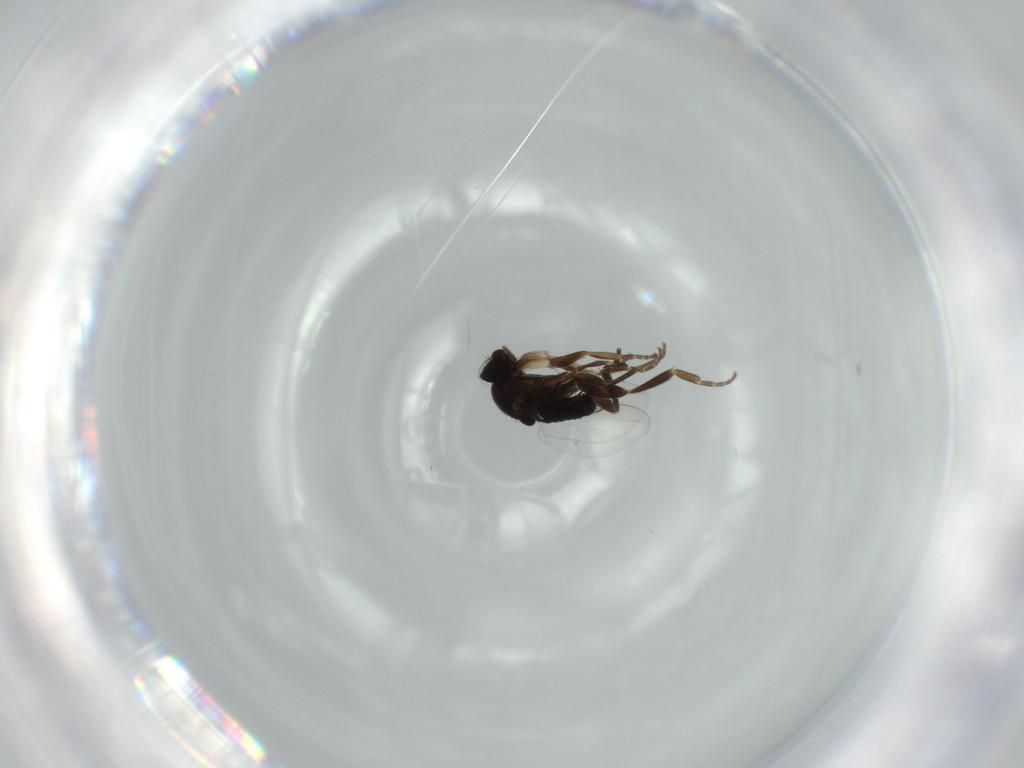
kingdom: Animalia
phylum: Arthropoda
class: Insecta
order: Diptera
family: Phoridae
